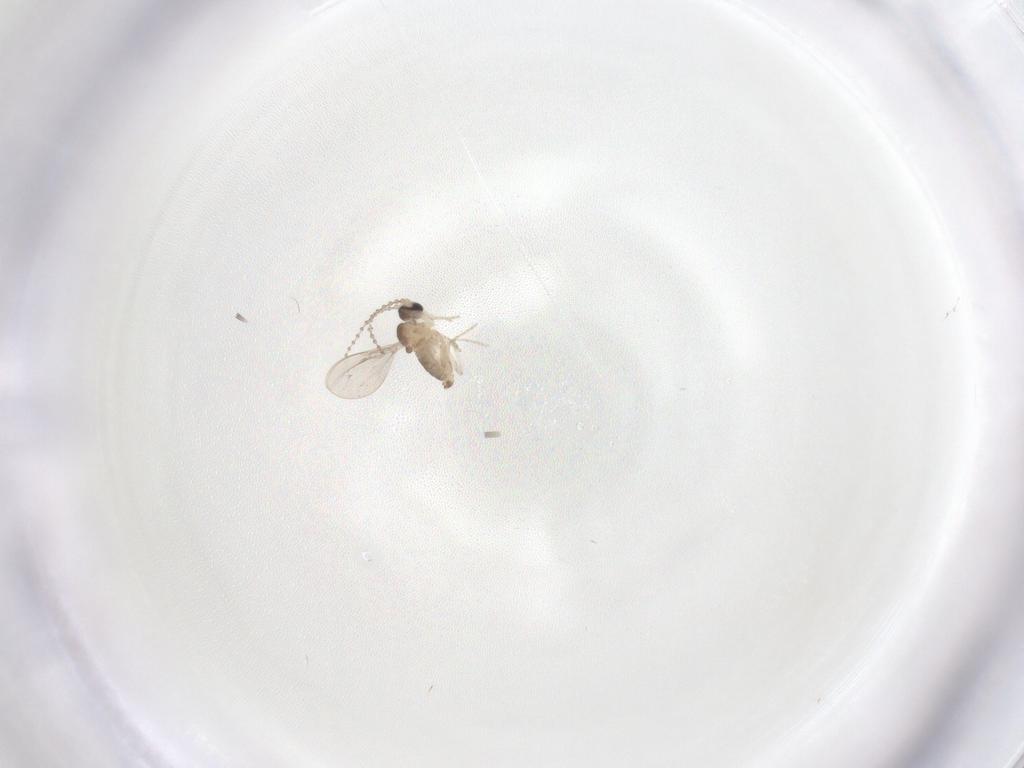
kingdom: Animalia
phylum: Arthropoda
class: Insecta
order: Diptera
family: Cecidomyiidae
